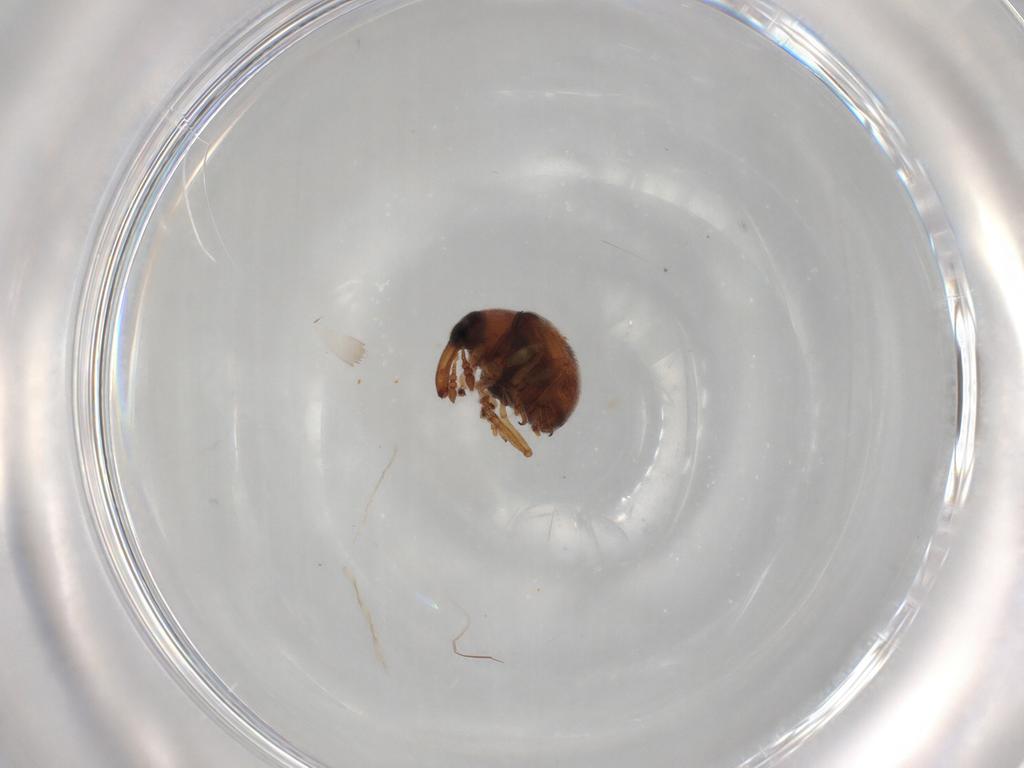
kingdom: Animalia
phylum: Arthropoda
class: Insecta
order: Coleoptera
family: Brentidae
